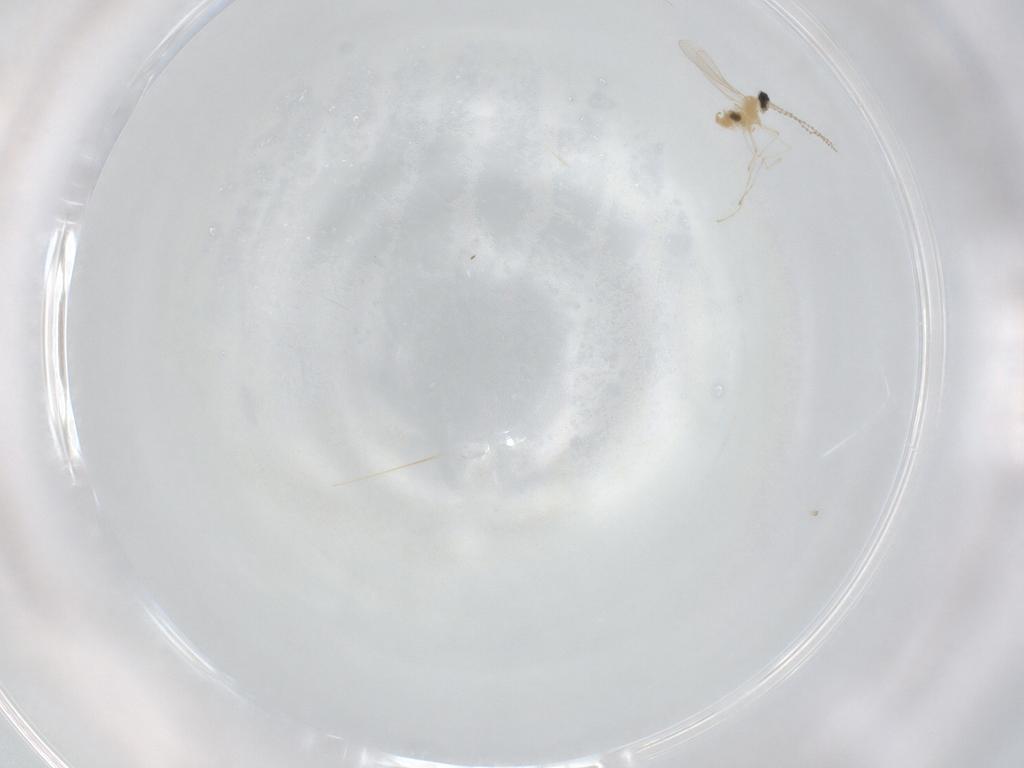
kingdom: Animalia
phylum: Arthropoda
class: Insecta
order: Diptera
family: Cecidomyiidae
